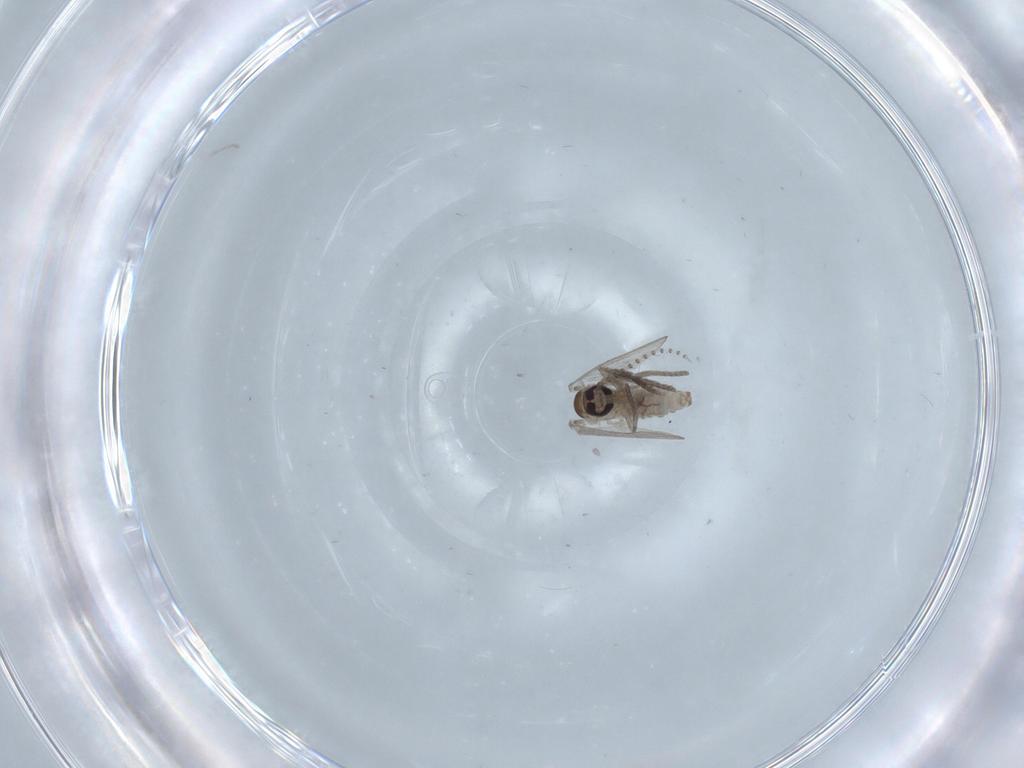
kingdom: Animalia
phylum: Arthropoda
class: Insecta
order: Diptera
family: Psychodidae
